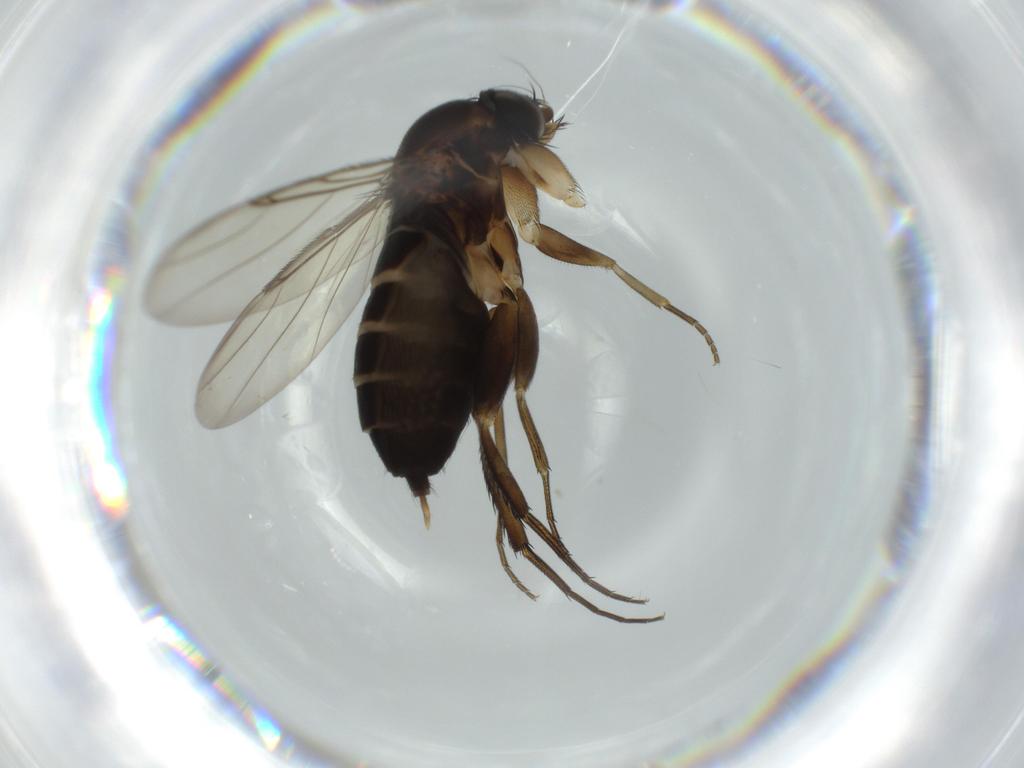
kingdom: Animalia
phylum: Arthropoda
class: Insecta
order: Diptera
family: Phoridae
